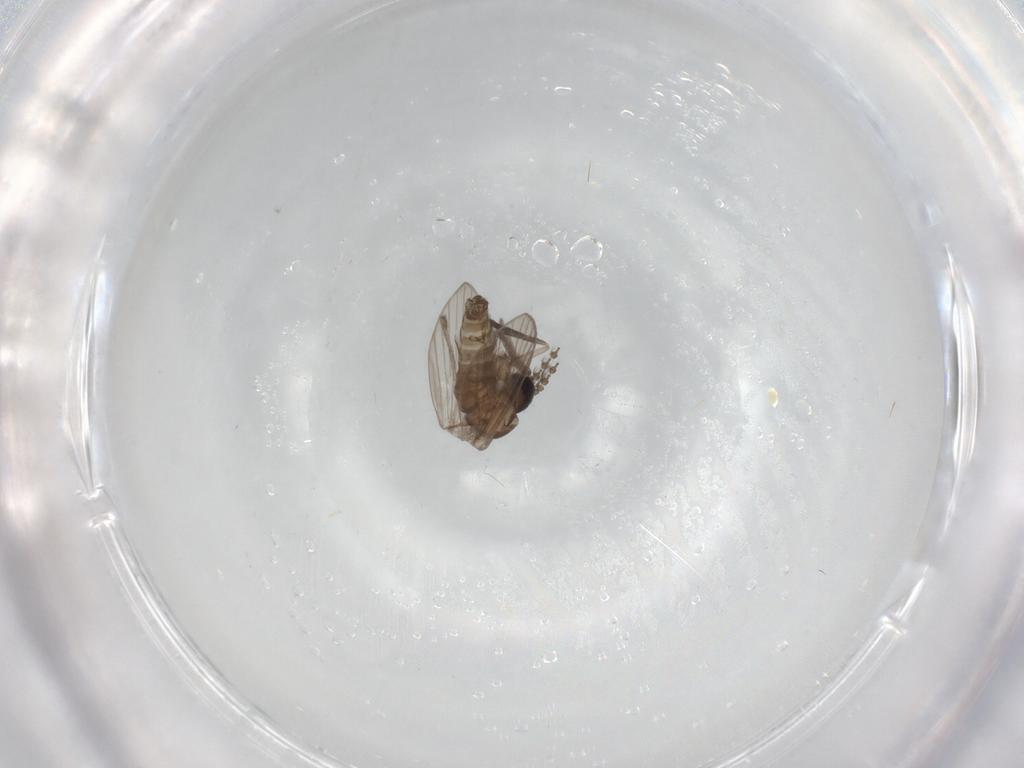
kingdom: Animalia
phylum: Arthropoda
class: Insecta
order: Diptera
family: Psychodidae
